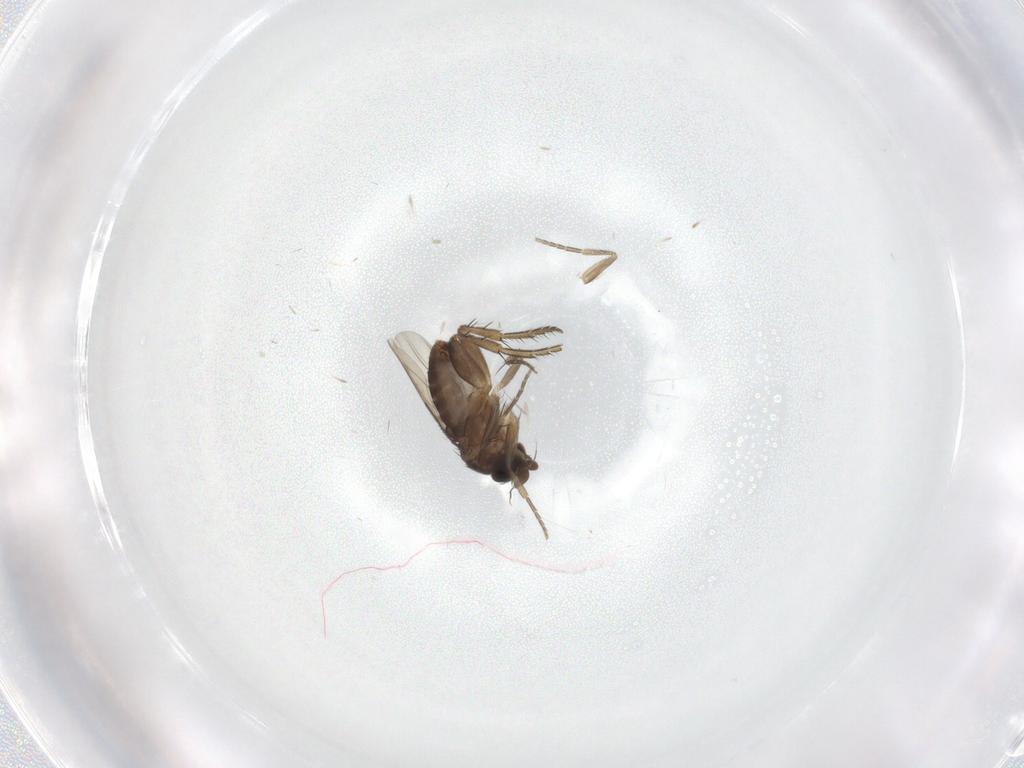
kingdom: Animalia
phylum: Arthropoda
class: Insecta
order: Diptera
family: Phoridae
